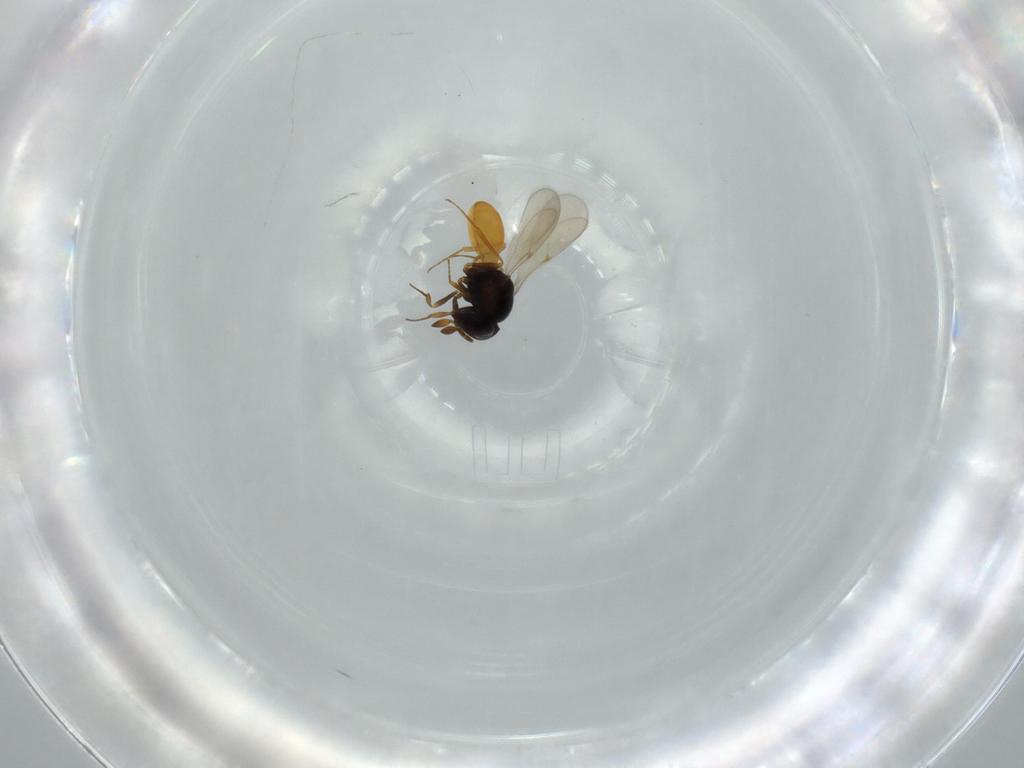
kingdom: Animalia
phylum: Arthropoda
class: Insecta
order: Hymenoptera
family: Scelionidae
